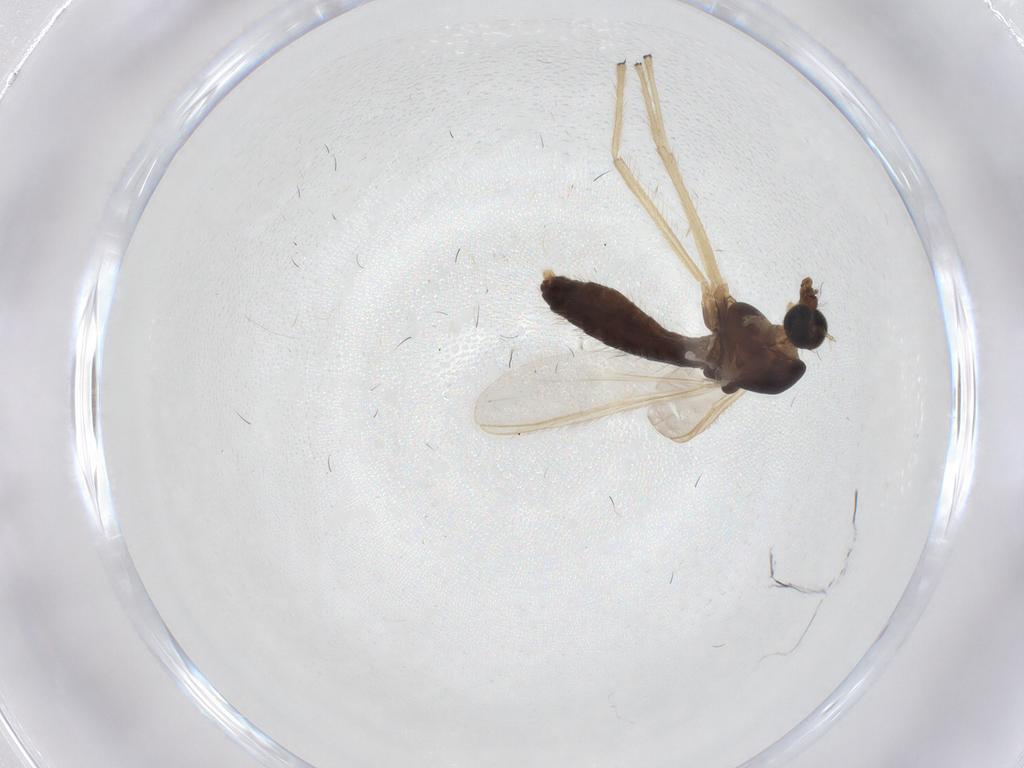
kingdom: Animalia
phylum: Arthropoda
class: Insecta
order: Diptera
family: Chironomidae
